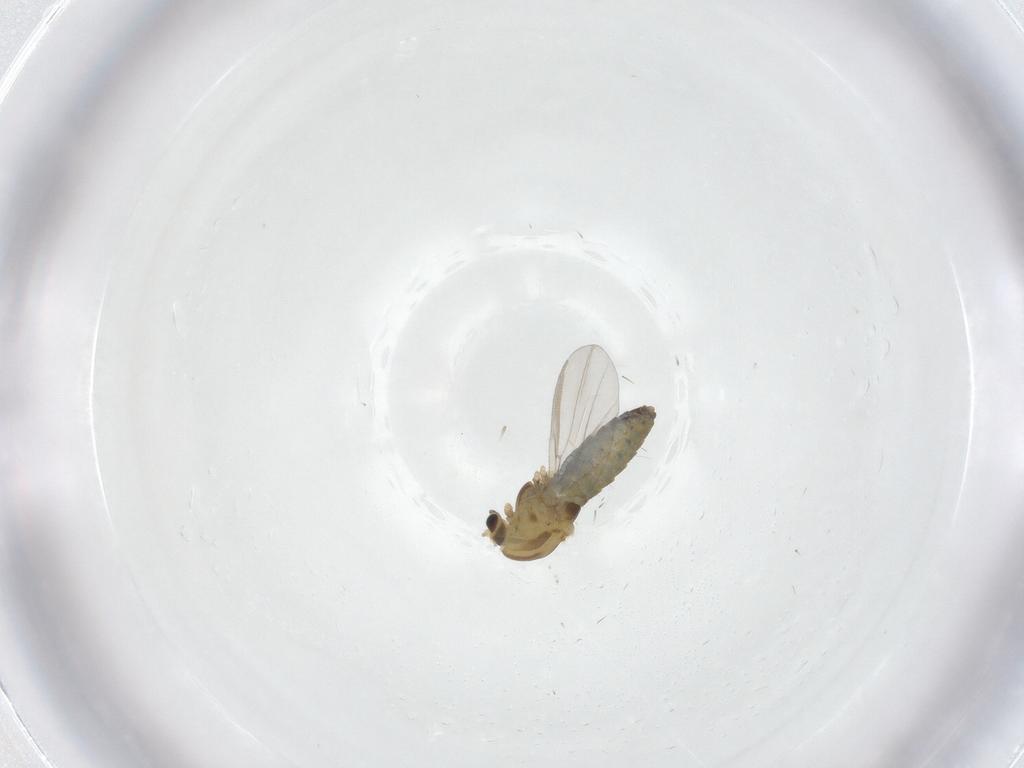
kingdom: Animalia
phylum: Arthropoda
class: Insecta
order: Diptera
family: Chironomidae
